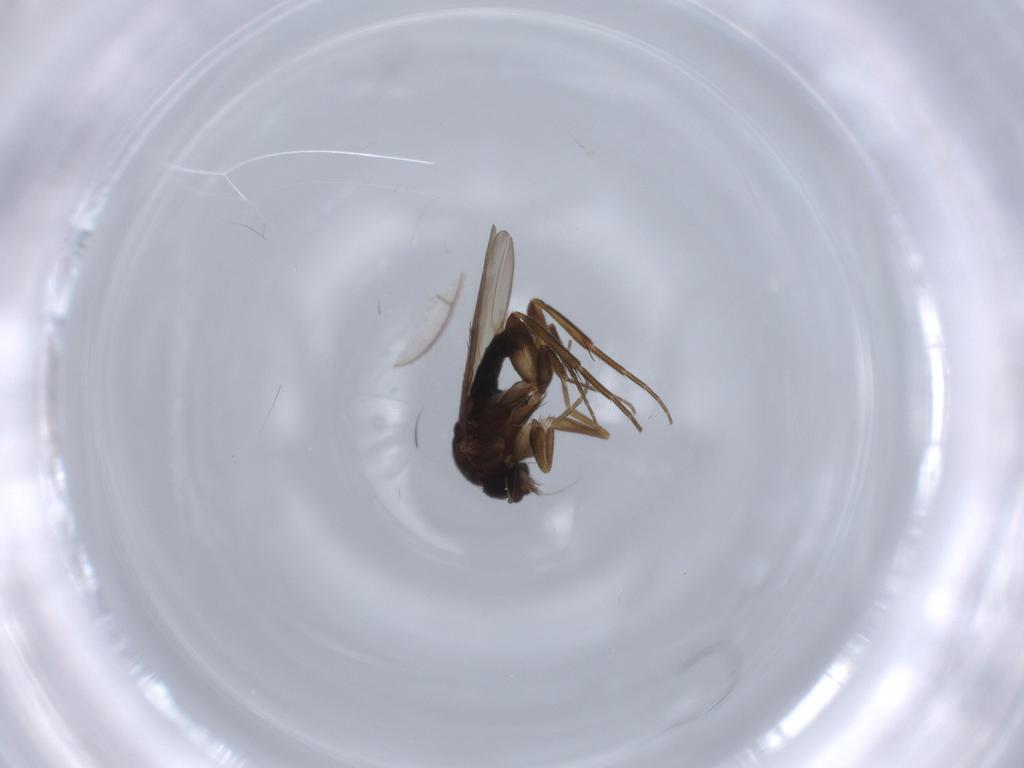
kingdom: Animalia
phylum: Arthropoda
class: Insecta
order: Diptera
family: Phoridae
